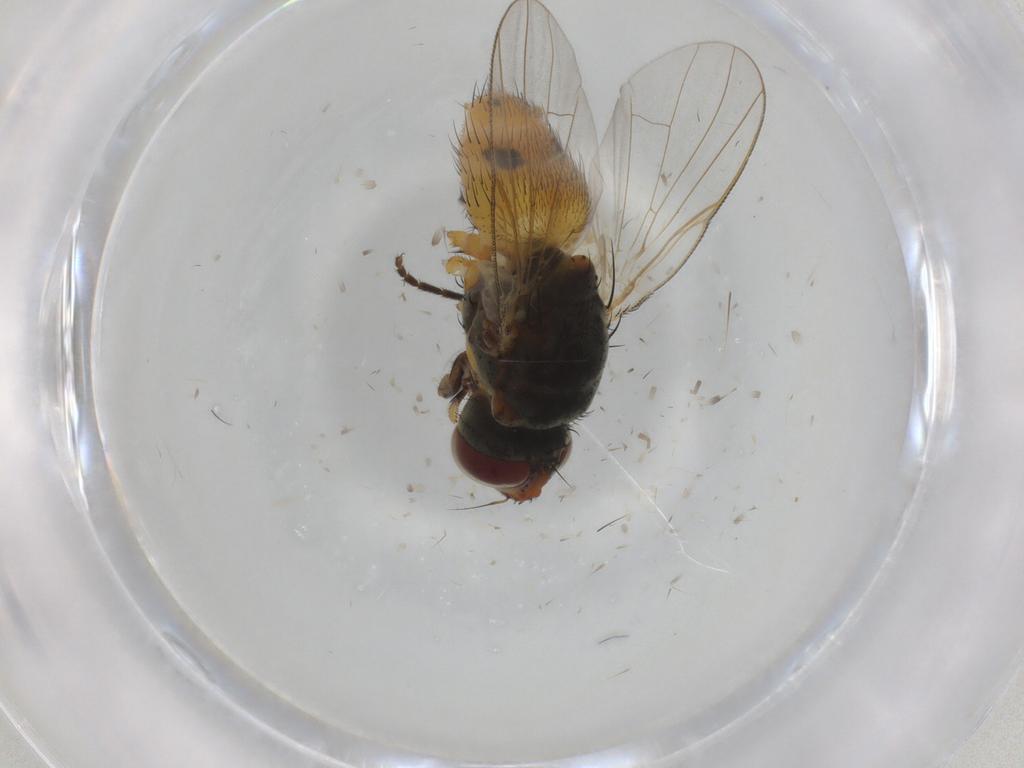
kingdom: Animalia
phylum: Arthropoda
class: Insecta
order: Diptera
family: Muscidae
